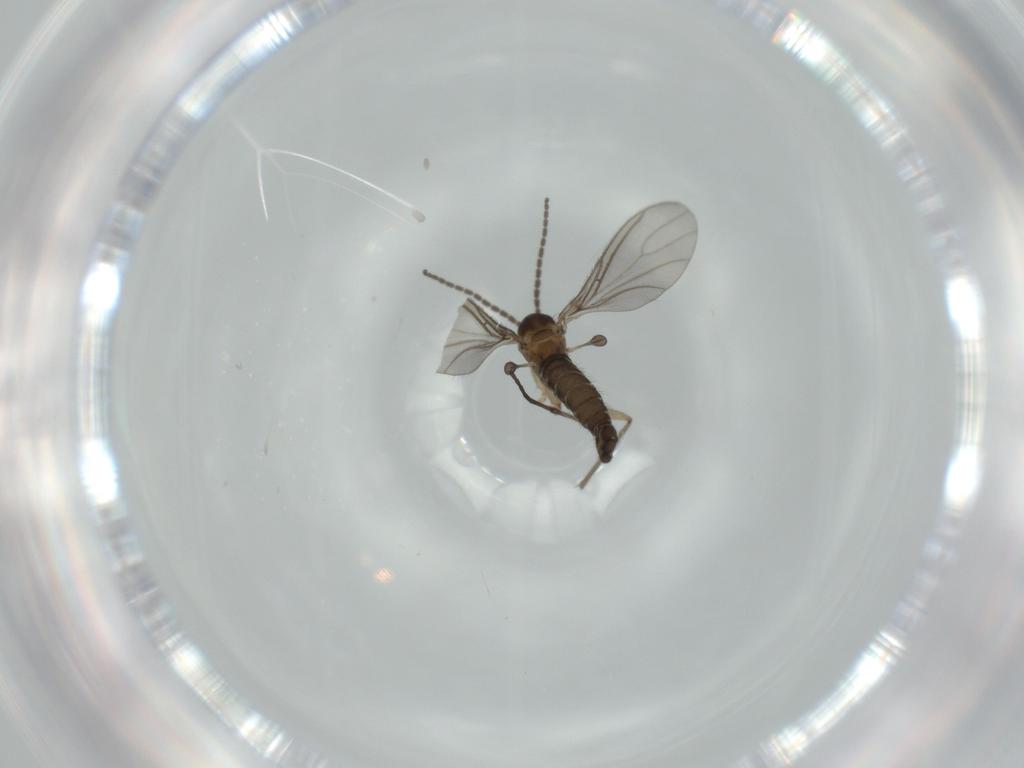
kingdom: Animalia
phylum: Arthropoda
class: Insecta
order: Diptera
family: Sciaridae
